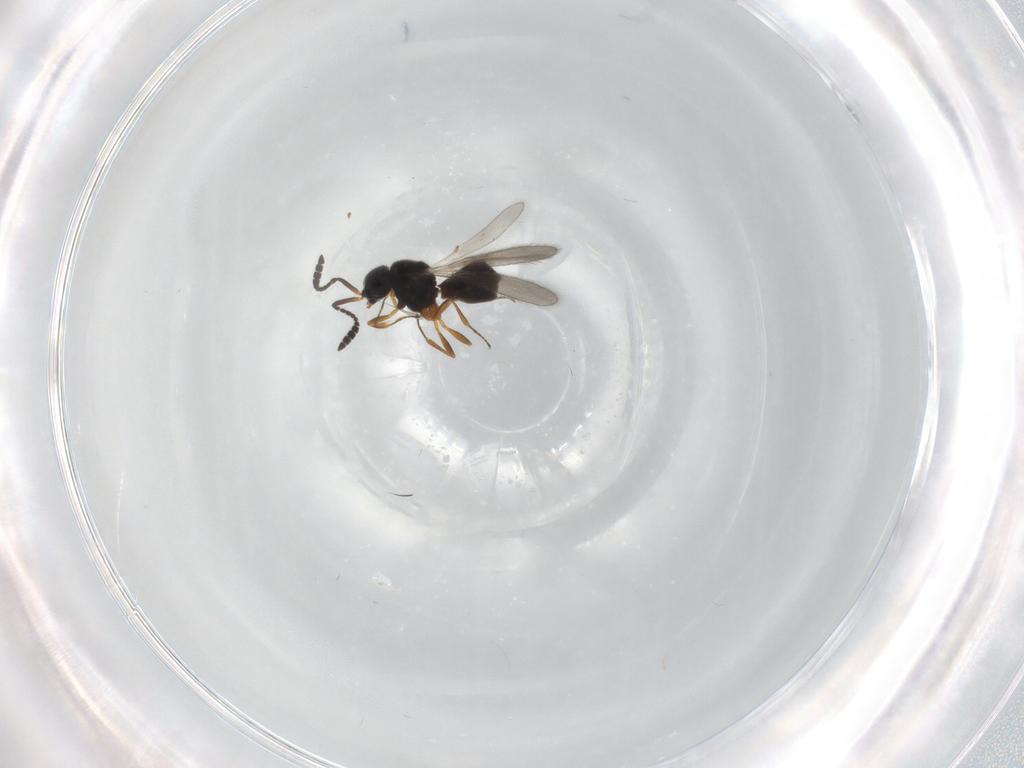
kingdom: Animalia
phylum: Arthropoda
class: Insecta
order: Hymenoptera
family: Scelionidae
